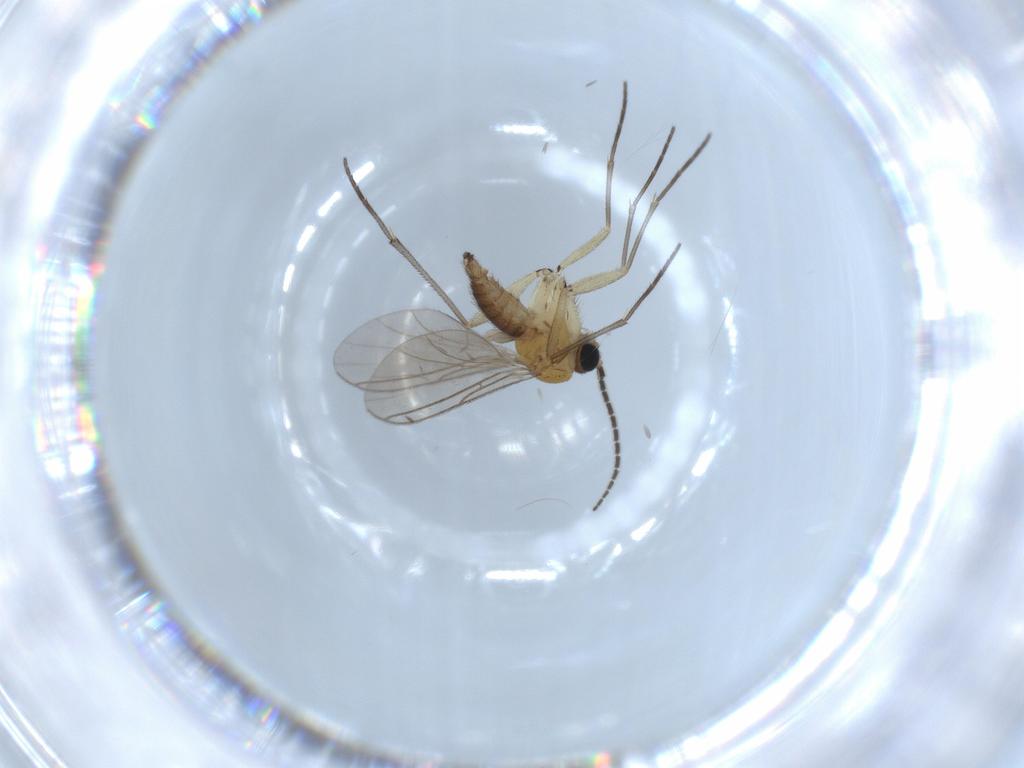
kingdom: Animalia
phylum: Arthropoda
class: Insecta
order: Diptera
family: Sciaridae
